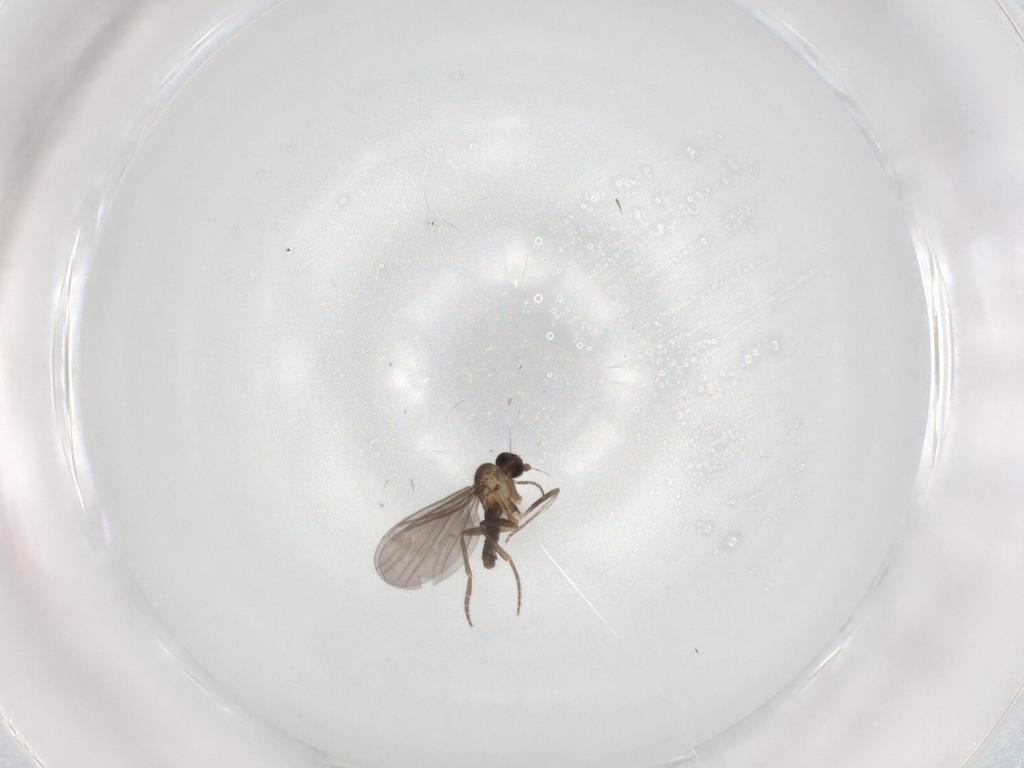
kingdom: Animalia
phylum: Arthropoda
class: Insecta
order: Diptera
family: Phoridae
